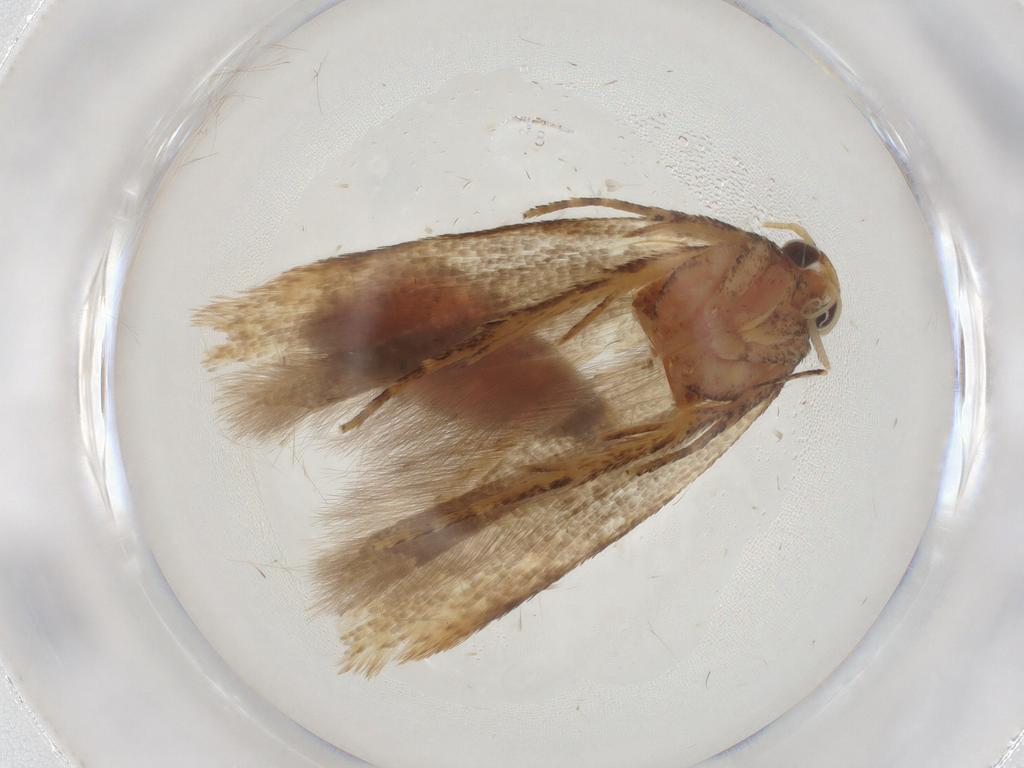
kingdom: Animalia
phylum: Arthropoda
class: Insecta
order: Lepidoptera
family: Gelechiidae
